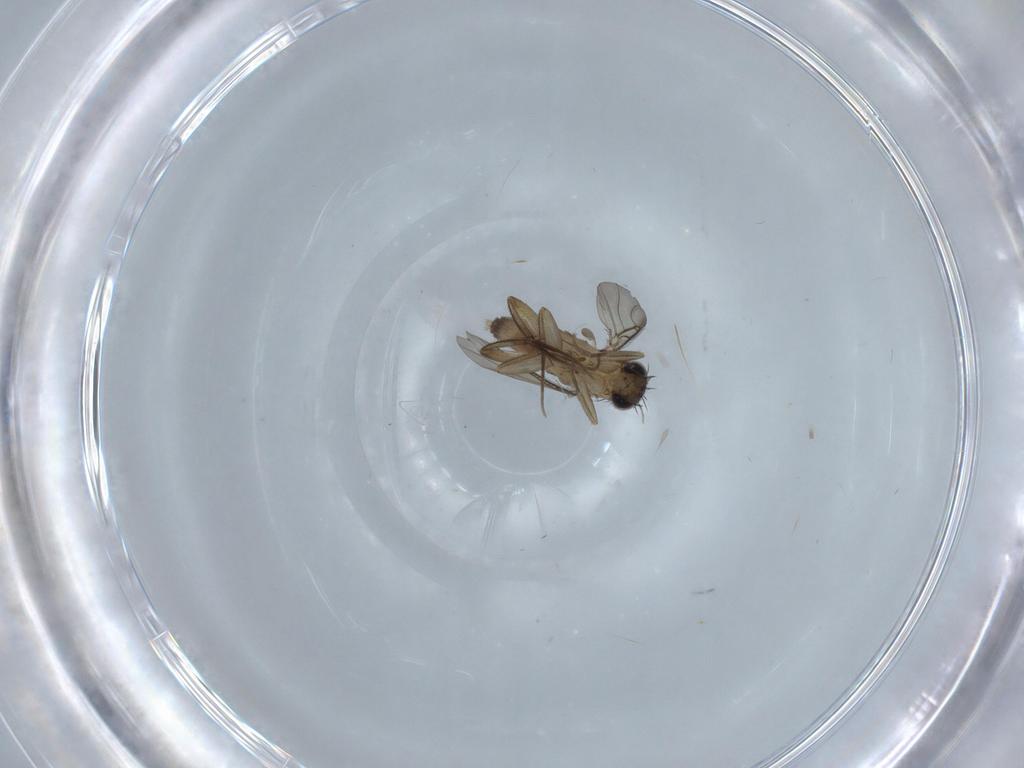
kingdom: Animalia
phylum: Arthropoda
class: Insecta
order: Diptera
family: Phoridae
